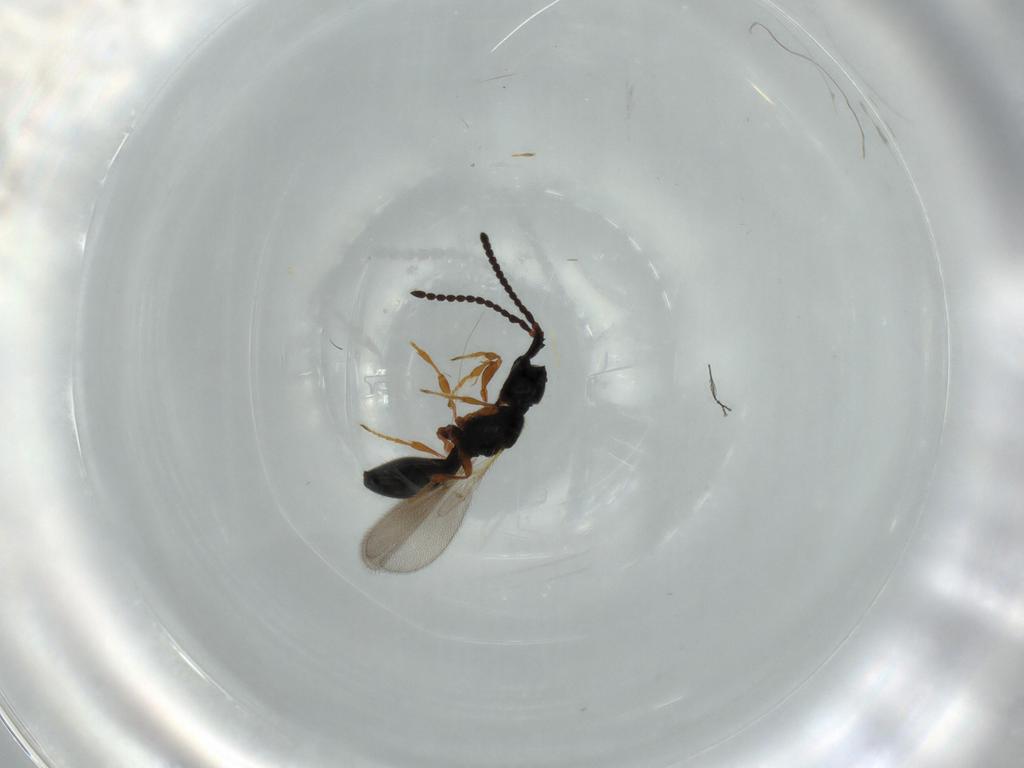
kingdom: Animalia
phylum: Arthropoda
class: Insecta
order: Hymenoptera
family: Diapriidae
